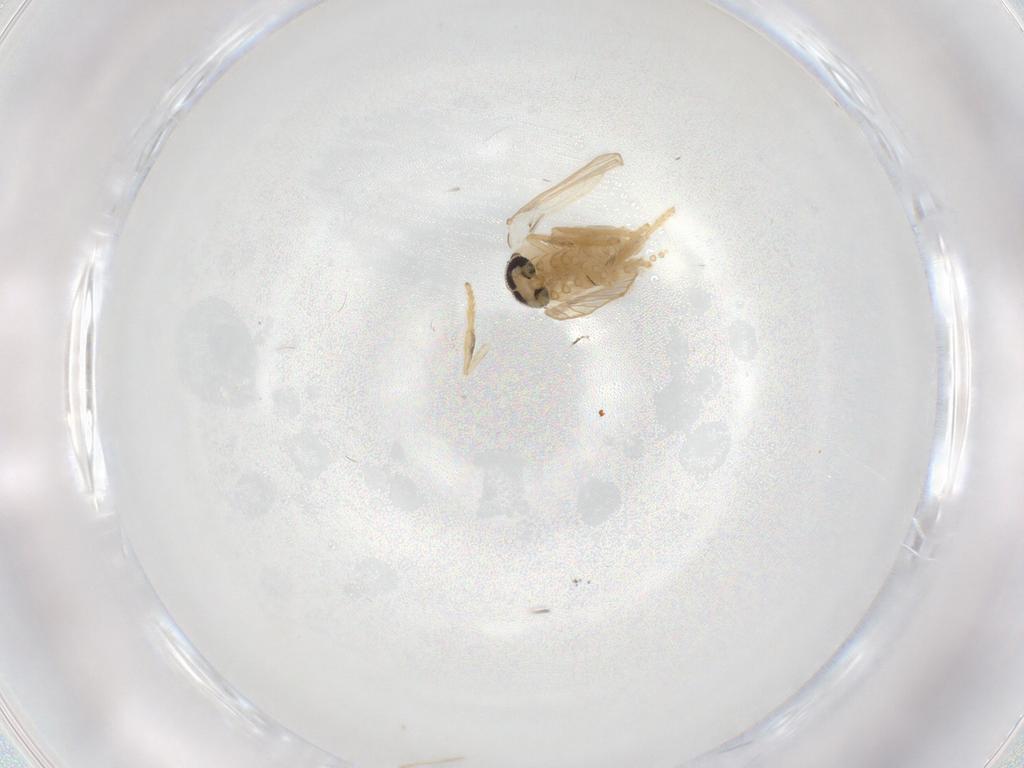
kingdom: Animalia
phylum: Arthropoda
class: Insecta
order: Diptera
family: Psychodidae
